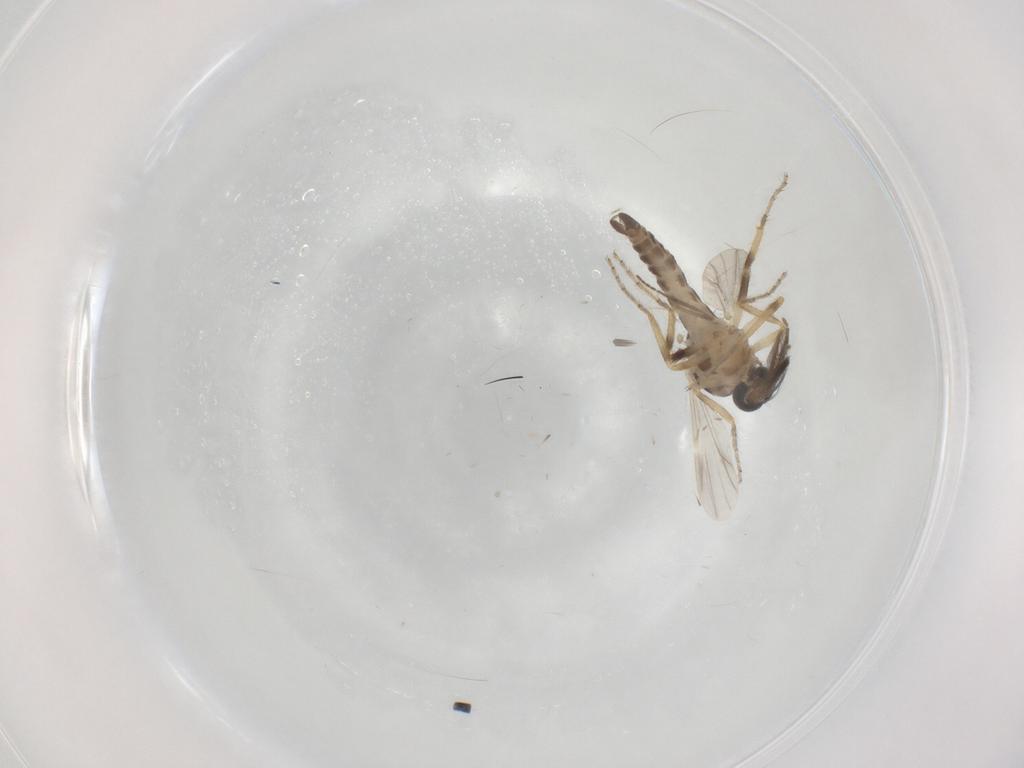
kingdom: Animalia
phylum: Arthropoda
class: Insecta
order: Diptera
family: Ceratopogonidae
